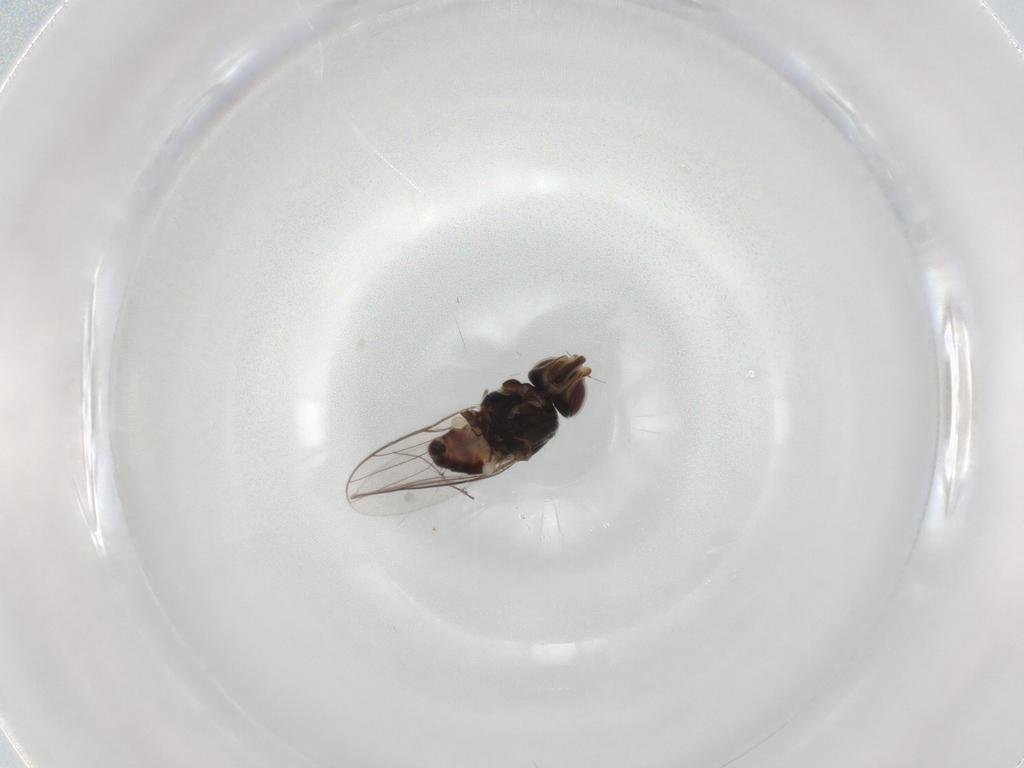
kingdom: Animalia
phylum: Arthropoda
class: Insecta
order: Diptera
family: Chloropidae
